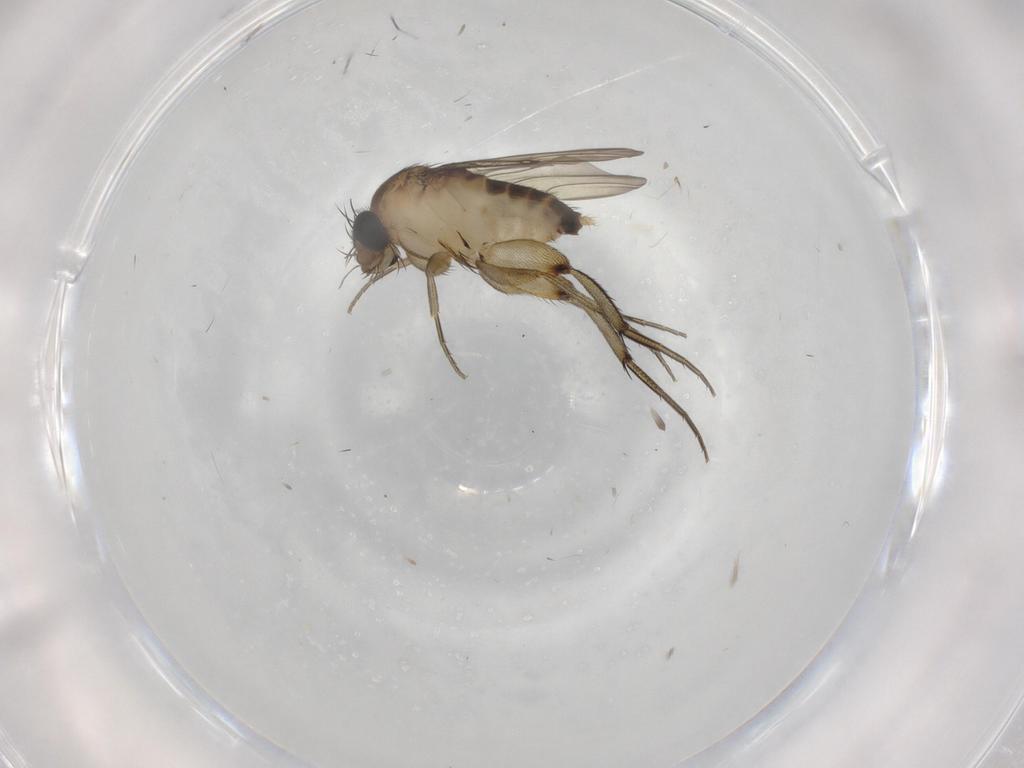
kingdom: Animalia
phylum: Arthropoda
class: Insecta
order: Diptera
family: Phoridae
